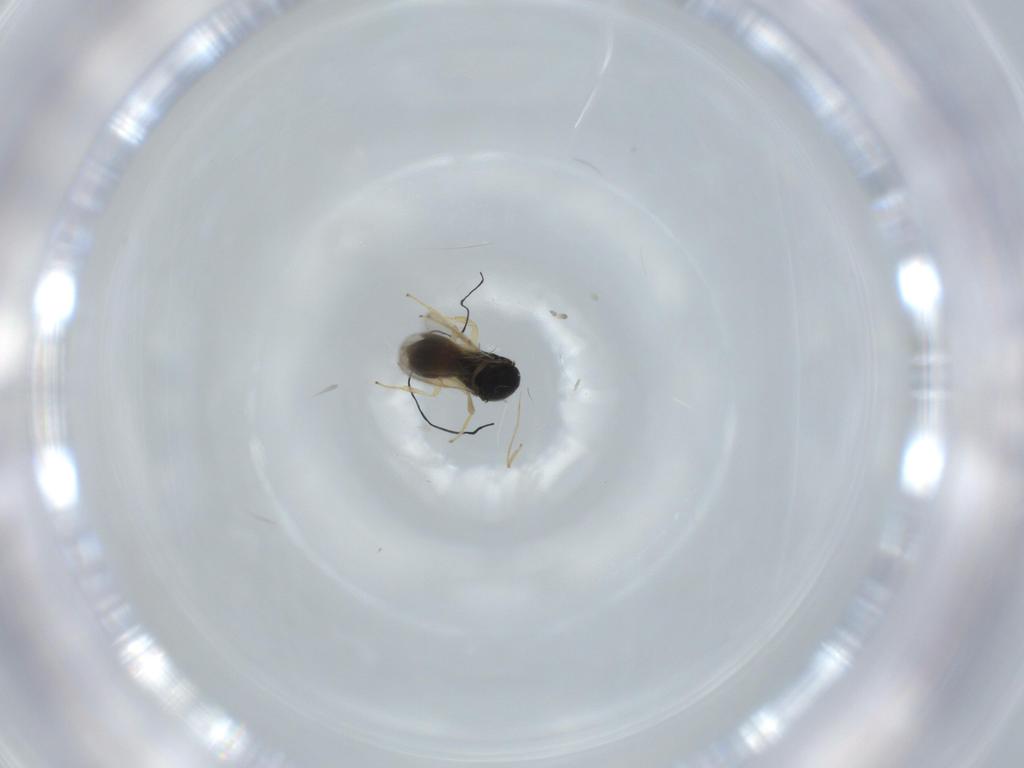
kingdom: Animalia
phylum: Arthropoda
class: Insecta
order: Hymenoptera
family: Scelionidae
